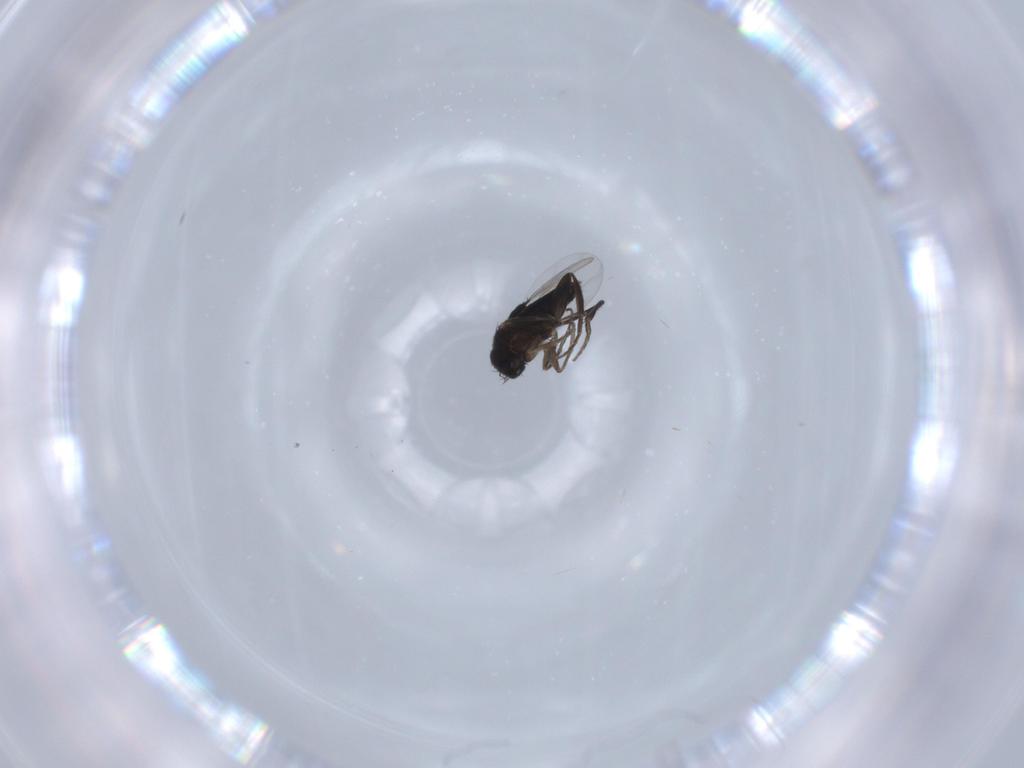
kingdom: Animalia
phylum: Arthropoda
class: Insecta
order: Diptera
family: Phoridae
